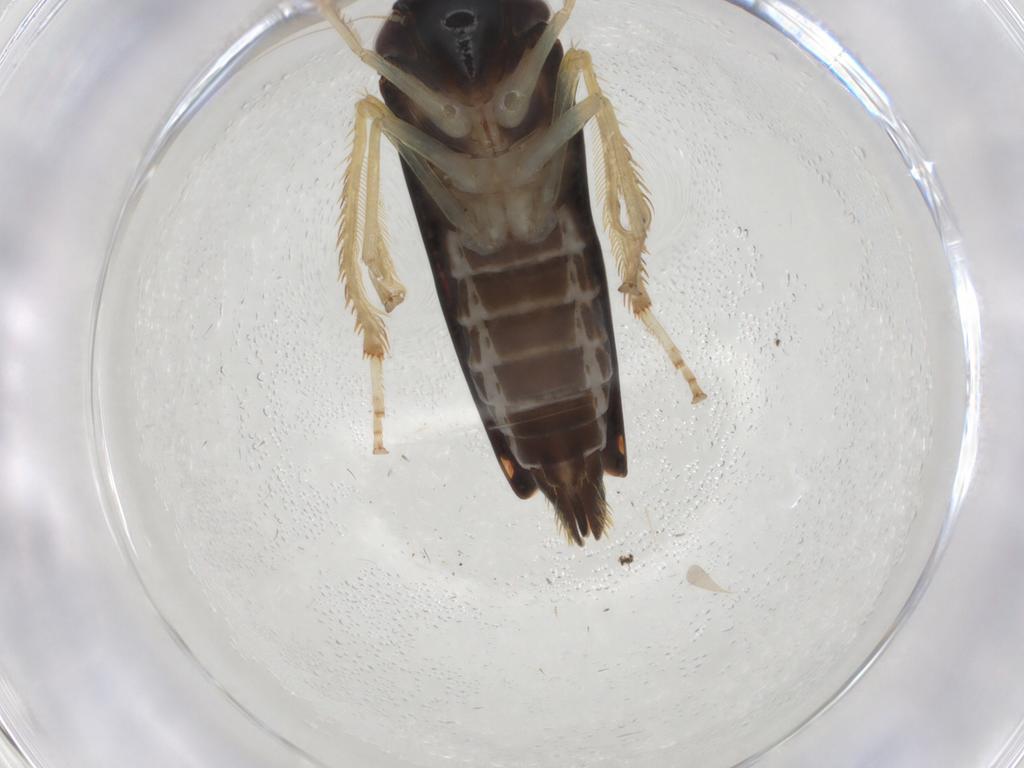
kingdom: Animalia
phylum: Arthropoda
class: Insecta
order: Hemiptera
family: Cicadellidae
